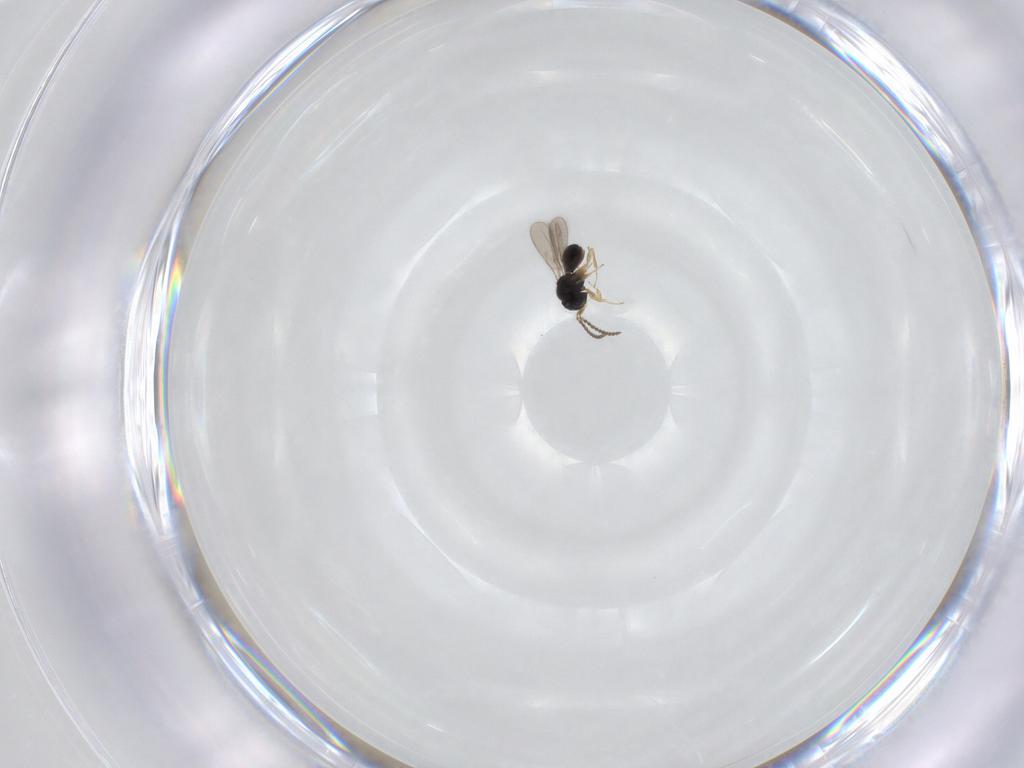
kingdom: Animalia
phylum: Arthropoda
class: Insecta
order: Hymenoptera
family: Scelionidae
